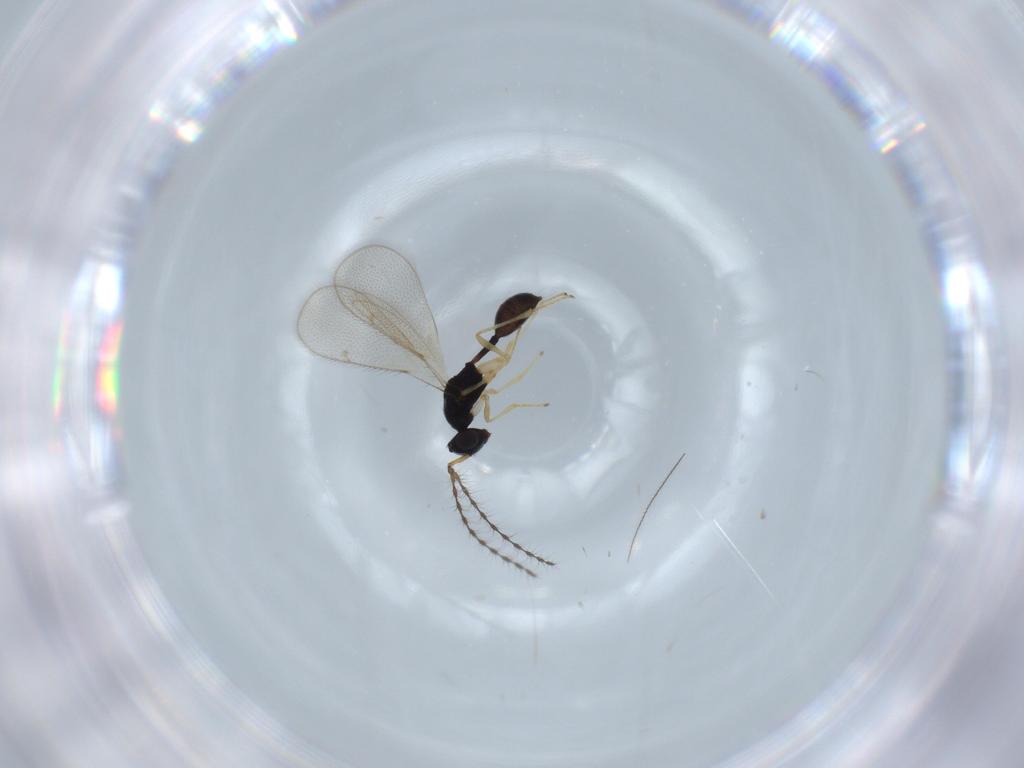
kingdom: Animalia
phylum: Arthropoda
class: Insecta
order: Hymenoptera
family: Diparidae
